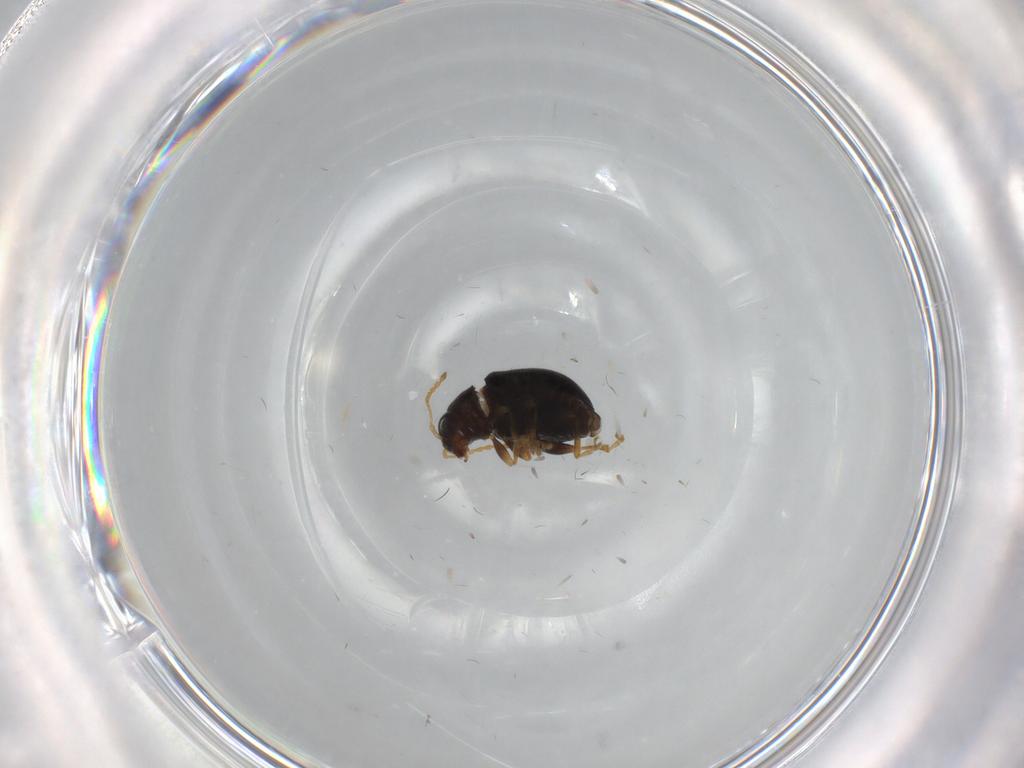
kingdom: Animalia
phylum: Arthropoda
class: Insecta
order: Coleoptera
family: Chrysomelidae
